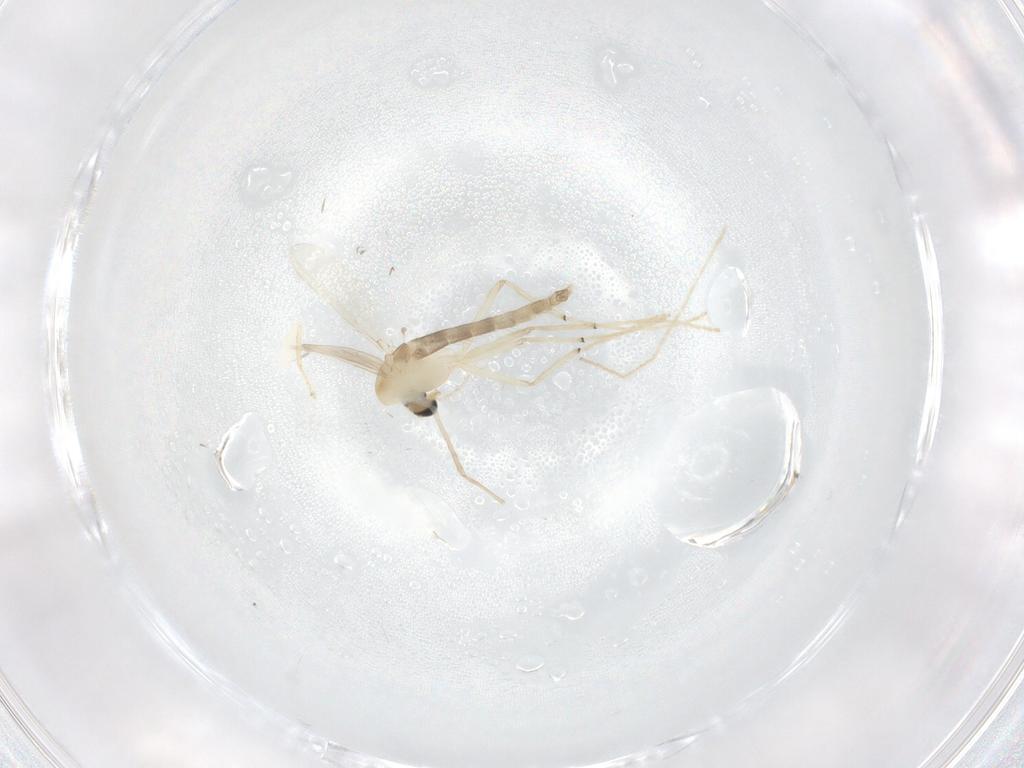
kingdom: Animalia
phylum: Arthropoda
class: Insecta
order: Diptera
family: Chironomidae
